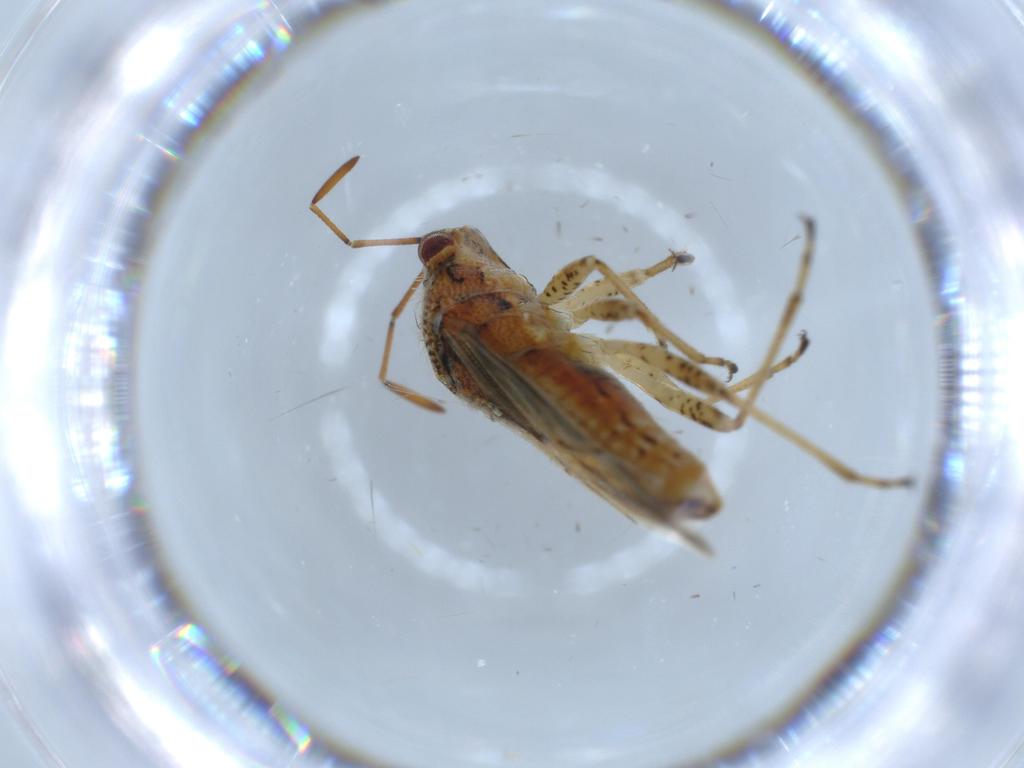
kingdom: Animalia
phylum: Arthropoda
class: Insecta
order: Hemiptera
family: Lygaeidae
